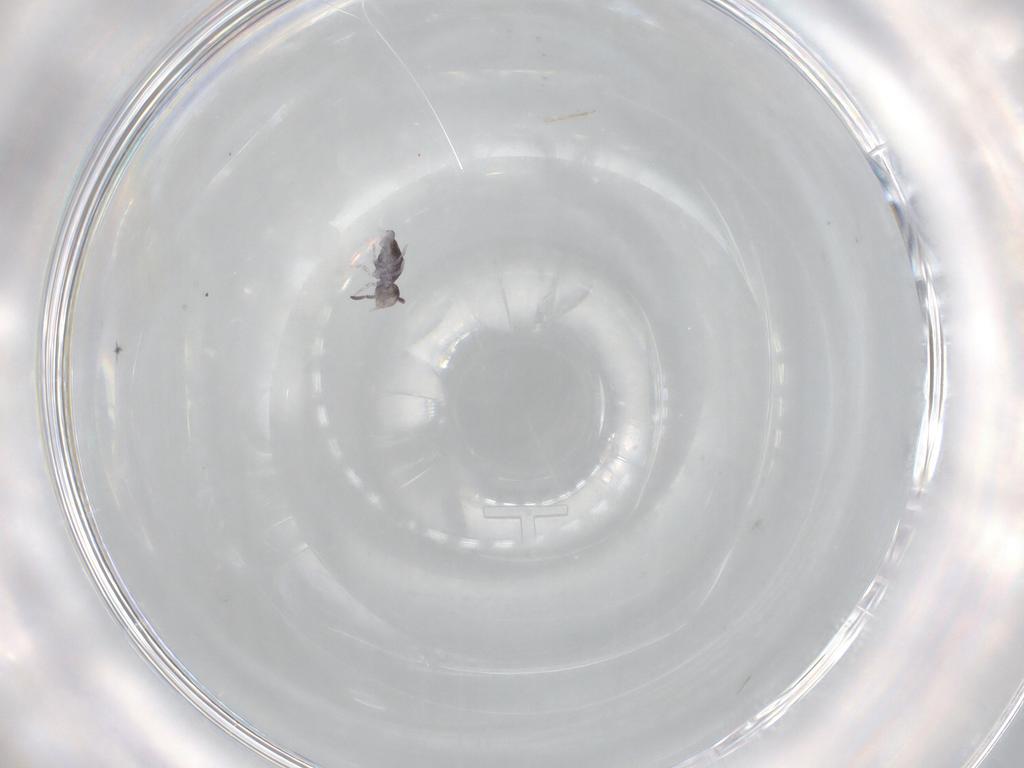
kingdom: Animalia
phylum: Arthropoda
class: Collembola
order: Symphypleona
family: Katiannidae
